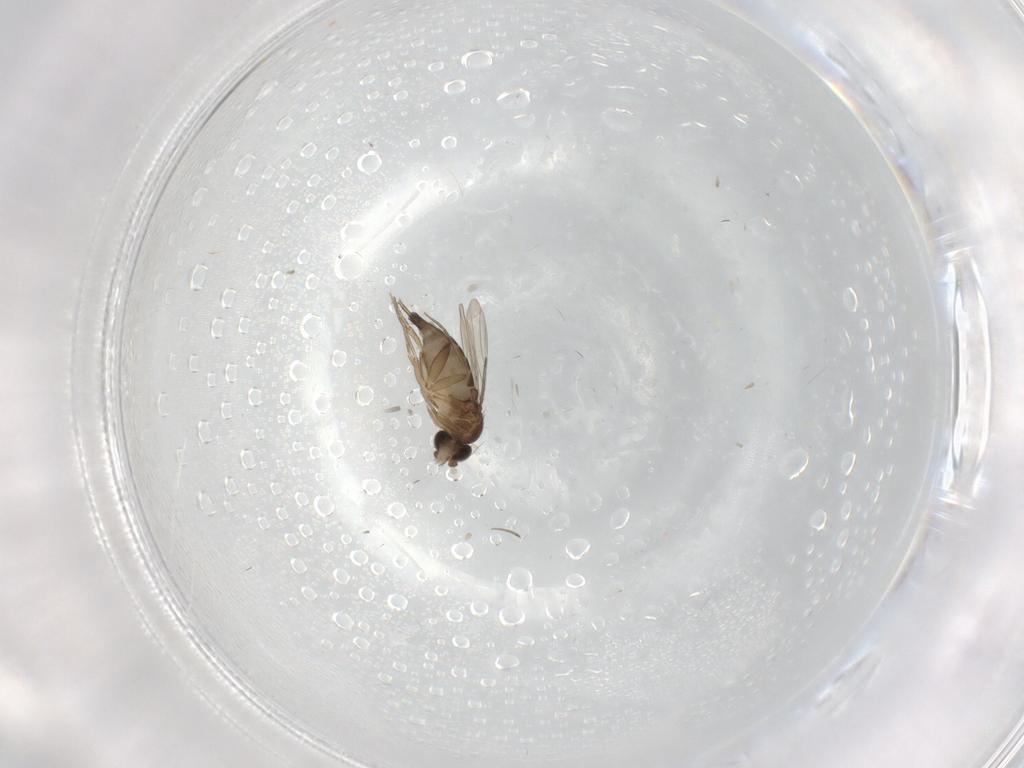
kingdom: Animalia
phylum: Arthropoda
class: Insecta
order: Diptera
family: Phoridae
